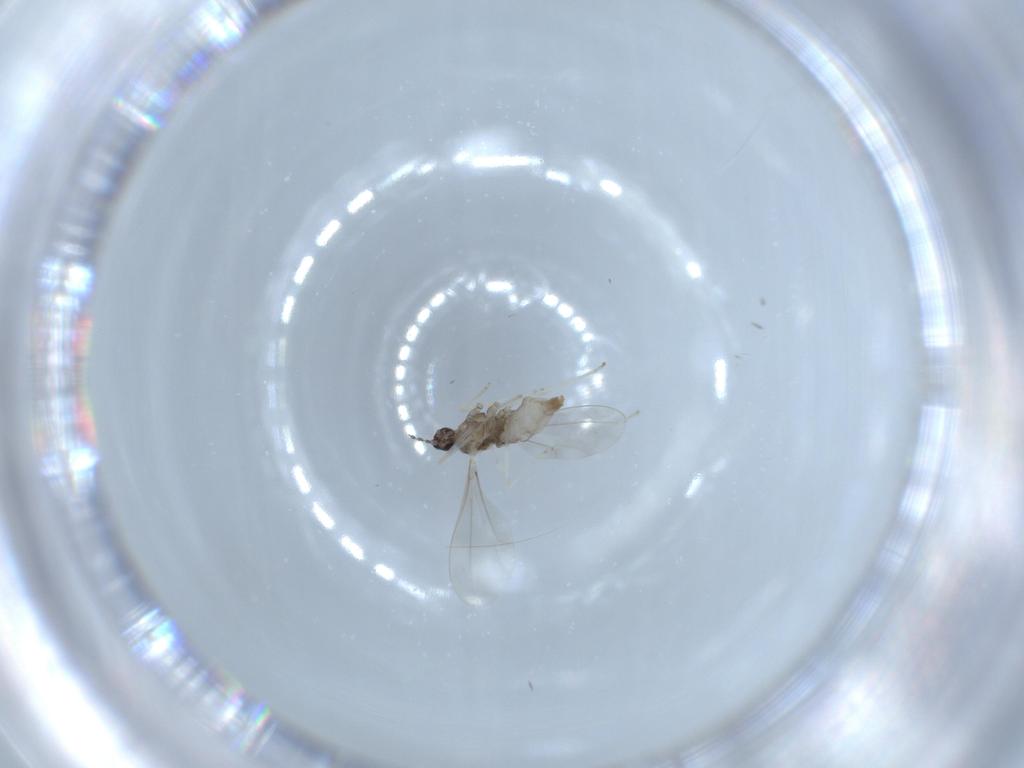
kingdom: Animalia
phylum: Arthropoda
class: Insecta
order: Diptera
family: Cecidomyiidae
